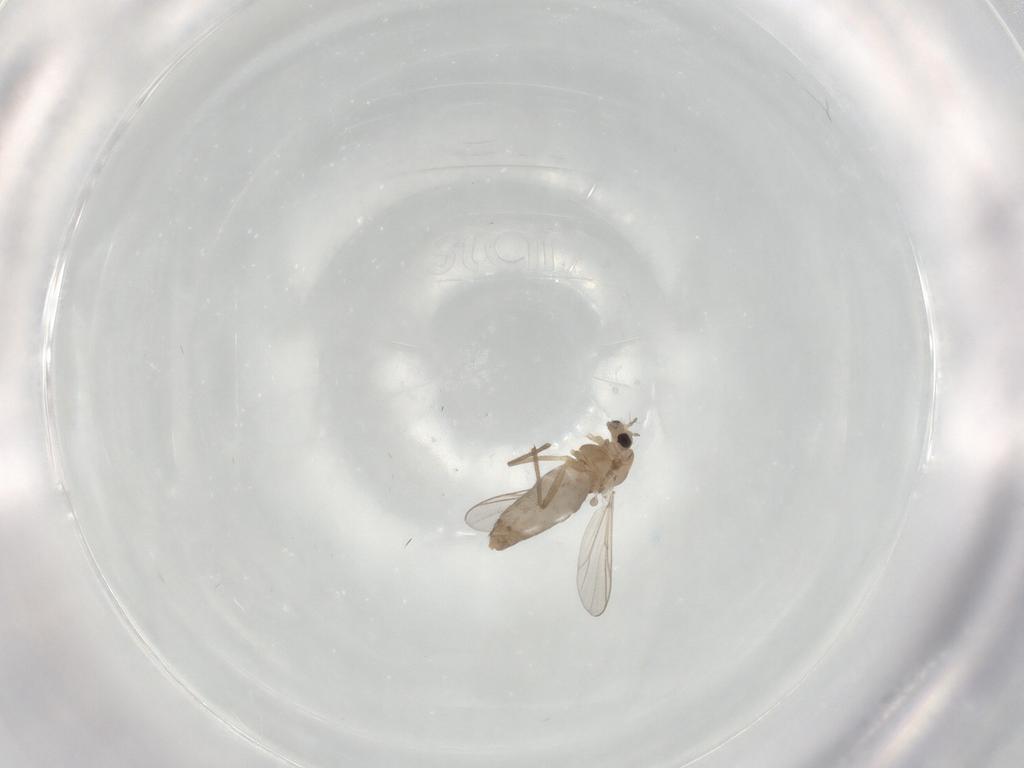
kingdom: Animalia
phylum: Arthropoda
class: Insecta
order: Diptera
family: Chironomidae
